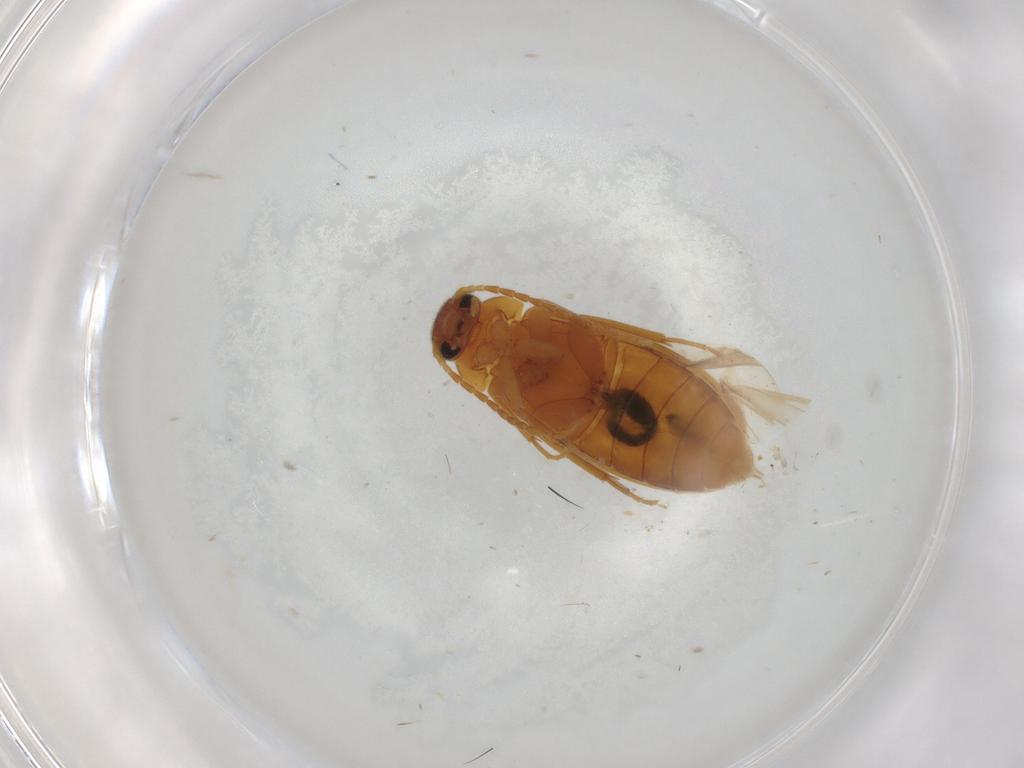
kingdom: Animalia
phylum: Arthropoda
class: Insecta
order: Coleoptera
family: Scraptiidae
